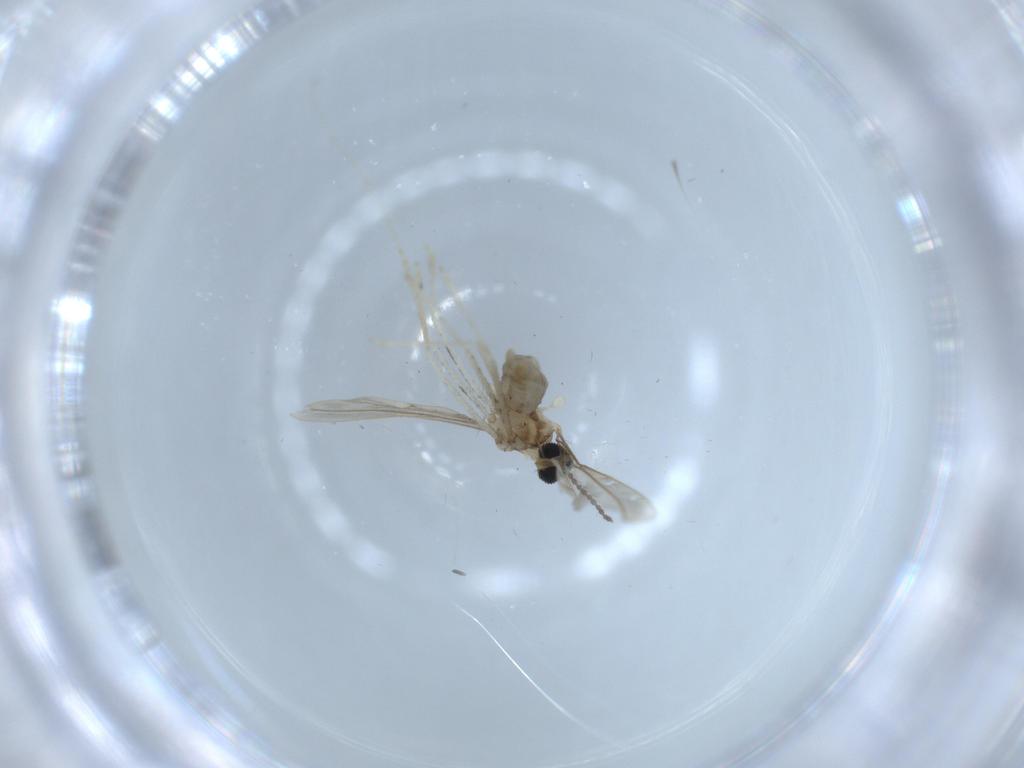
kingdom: Animalia
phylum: Arthropoda
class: Insecta
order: Diptera
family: Cecidomyiidae
